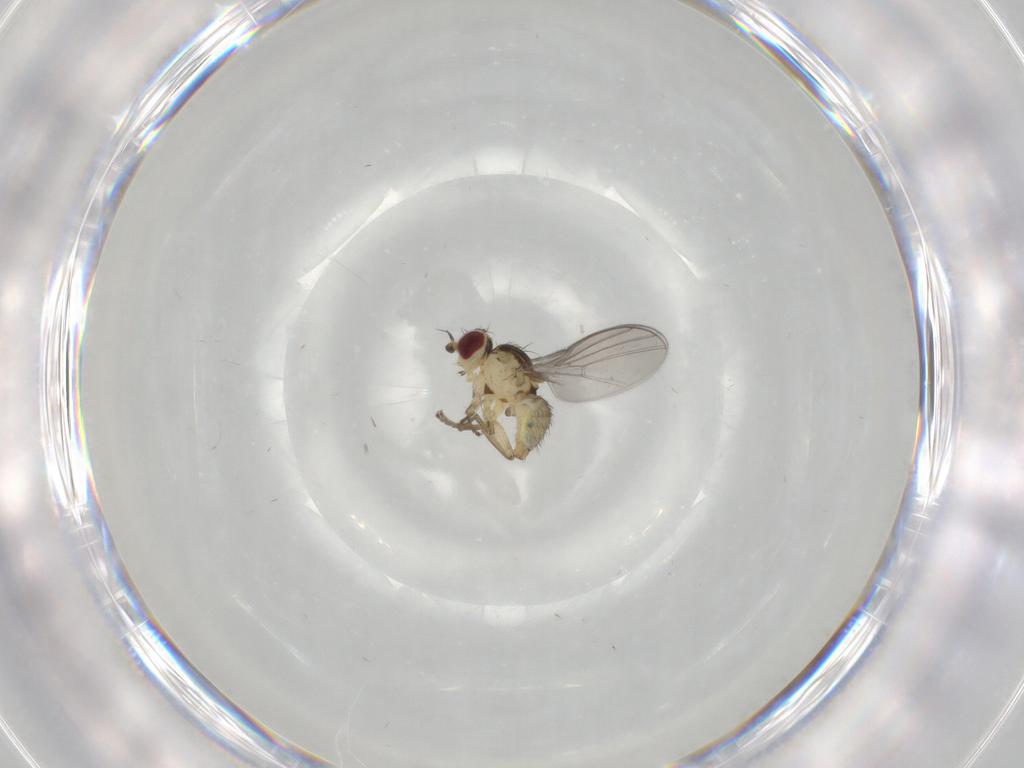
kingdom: Animalia
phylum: Arthropoda
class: Insecta
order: Diptera
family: Agromyzidae
